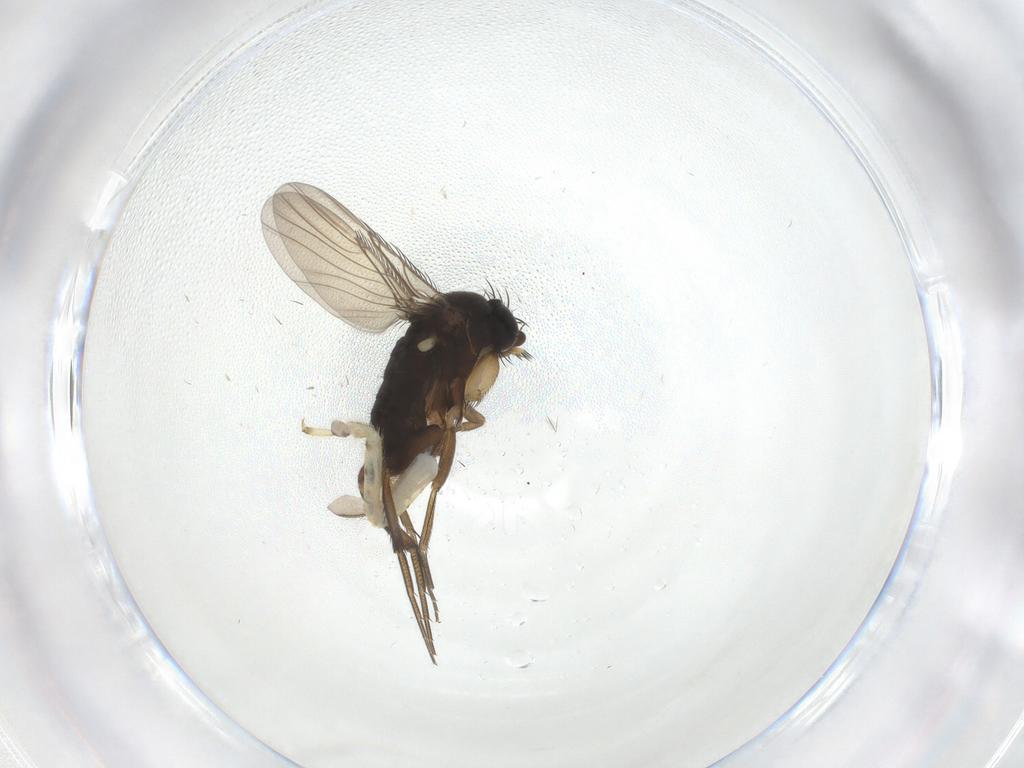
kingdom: Animalia
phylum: Arthropoda
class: Insecta
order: Diptera
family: Phoridae
